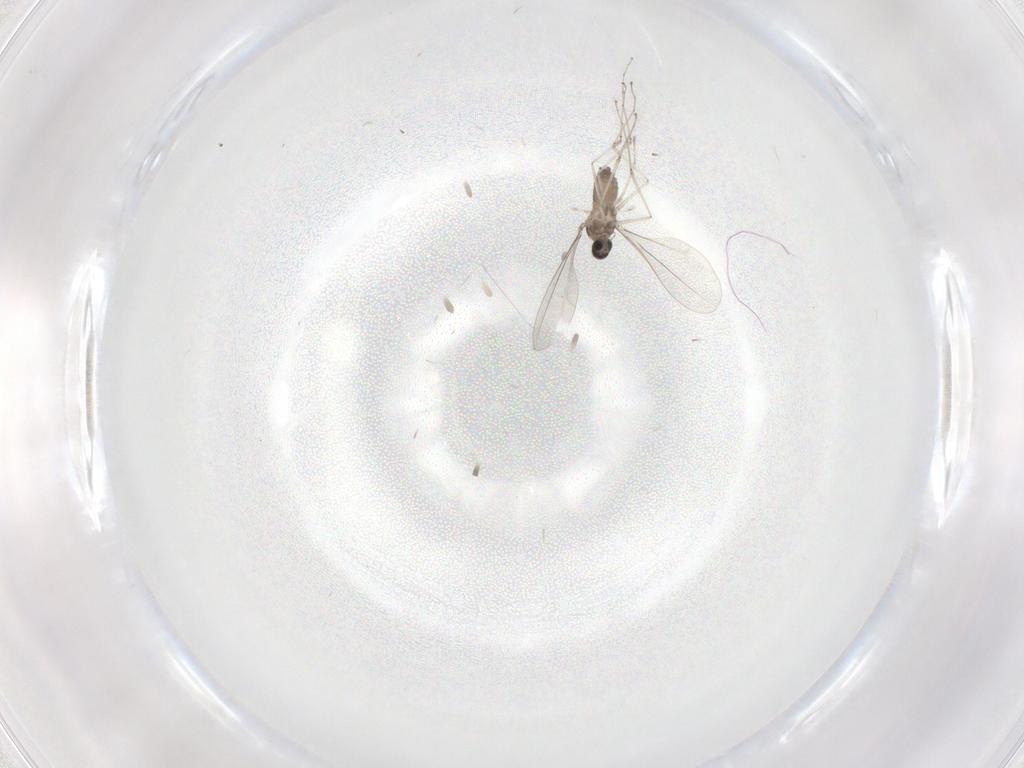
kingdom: Animalia
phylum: Arthropoda
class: Insecta
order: Diptera
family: Cecidomyiidae
